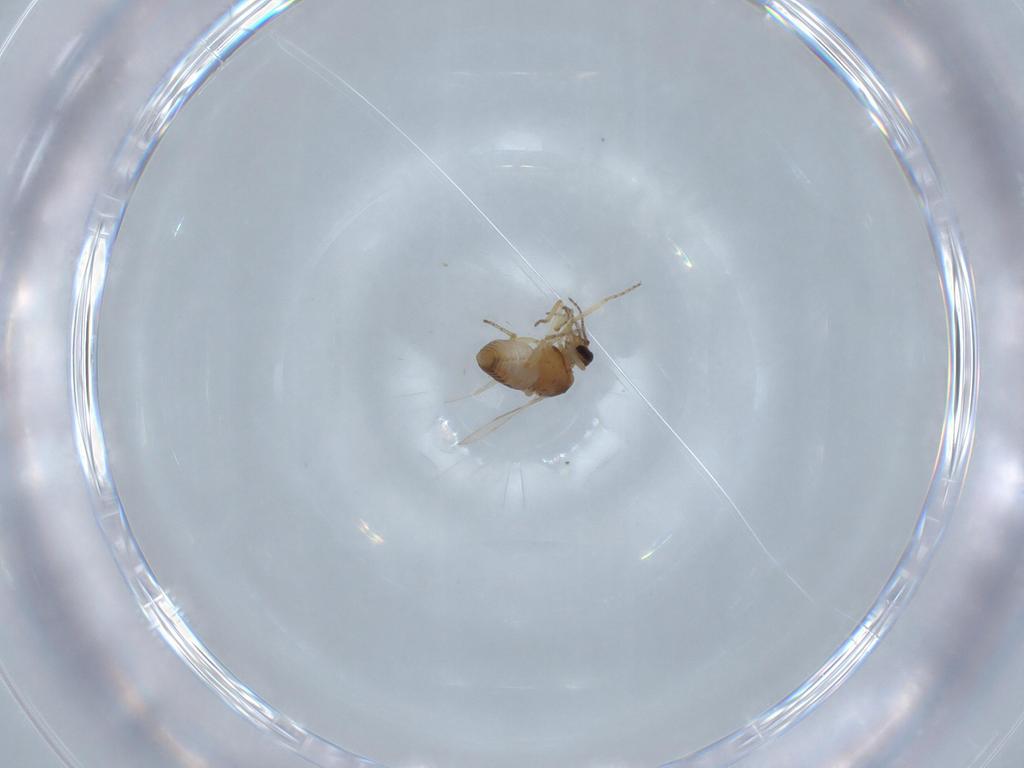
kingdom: Animalia
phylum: Arthropoda
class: Insecta
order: Diptera
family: Ceratopogonidae
